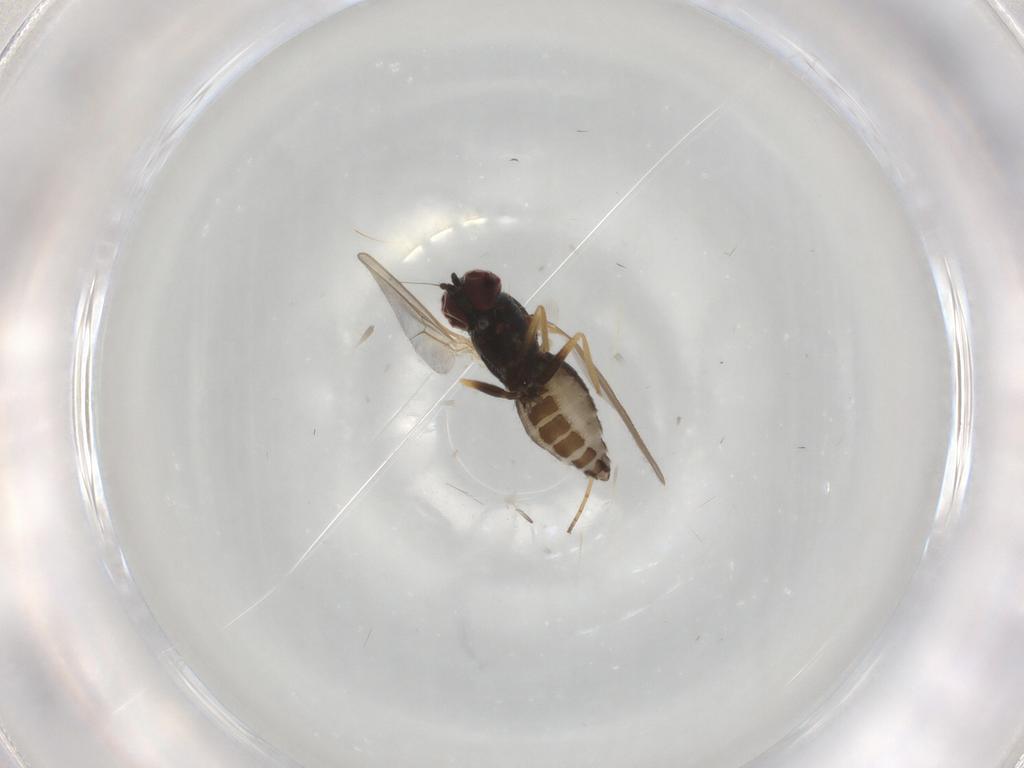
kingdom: Animalia
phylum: Arthropoda
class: Insecta
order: Diptera
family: Dolichopodidae
